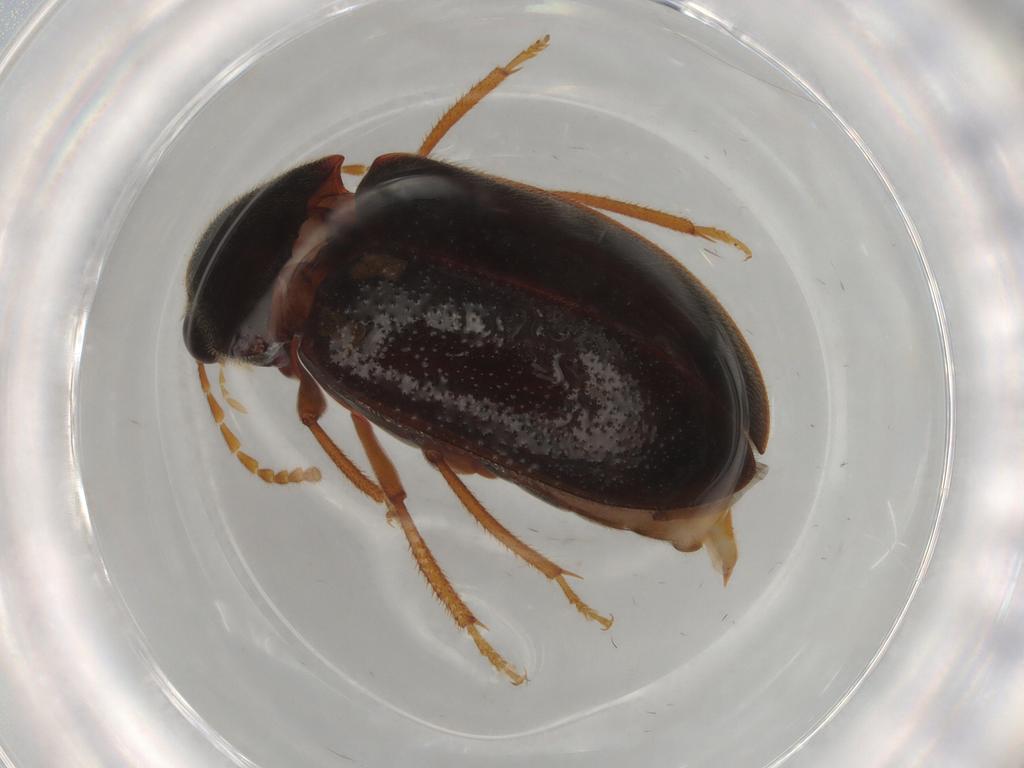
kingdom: Animalia
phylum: Arthropoda
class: Insecta
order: Coleoptera
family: Ptilodactylidae
